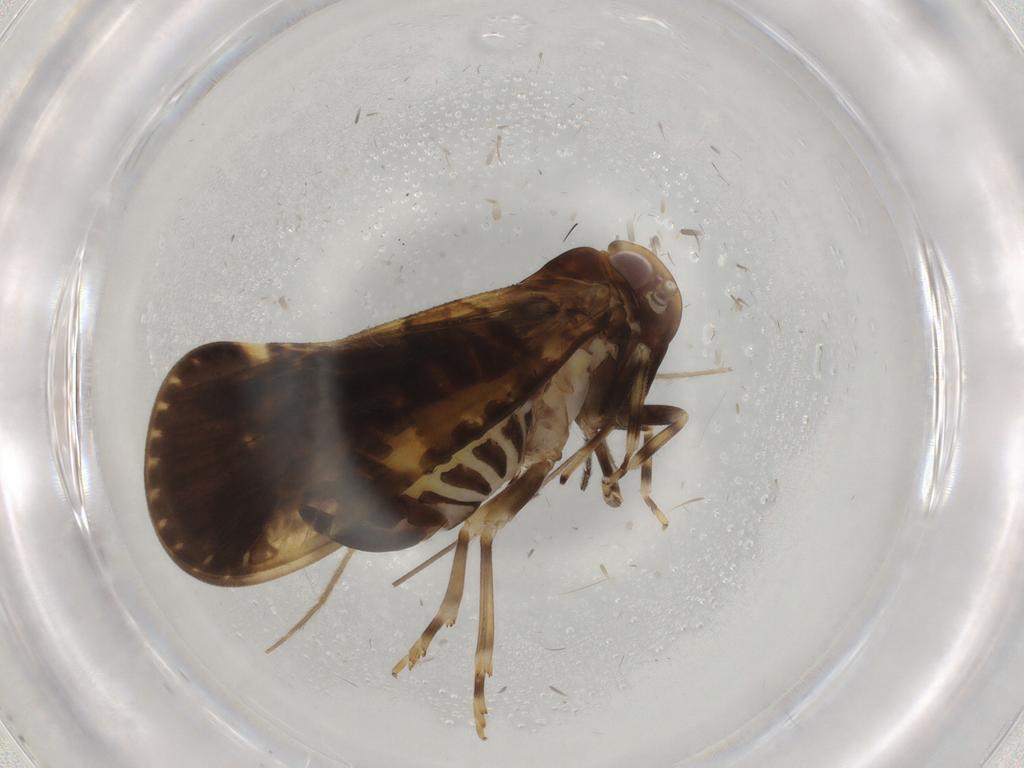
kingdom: Animalia
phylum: Arthropoda
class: Insecta
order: Hemiptera
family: Cixiidae
